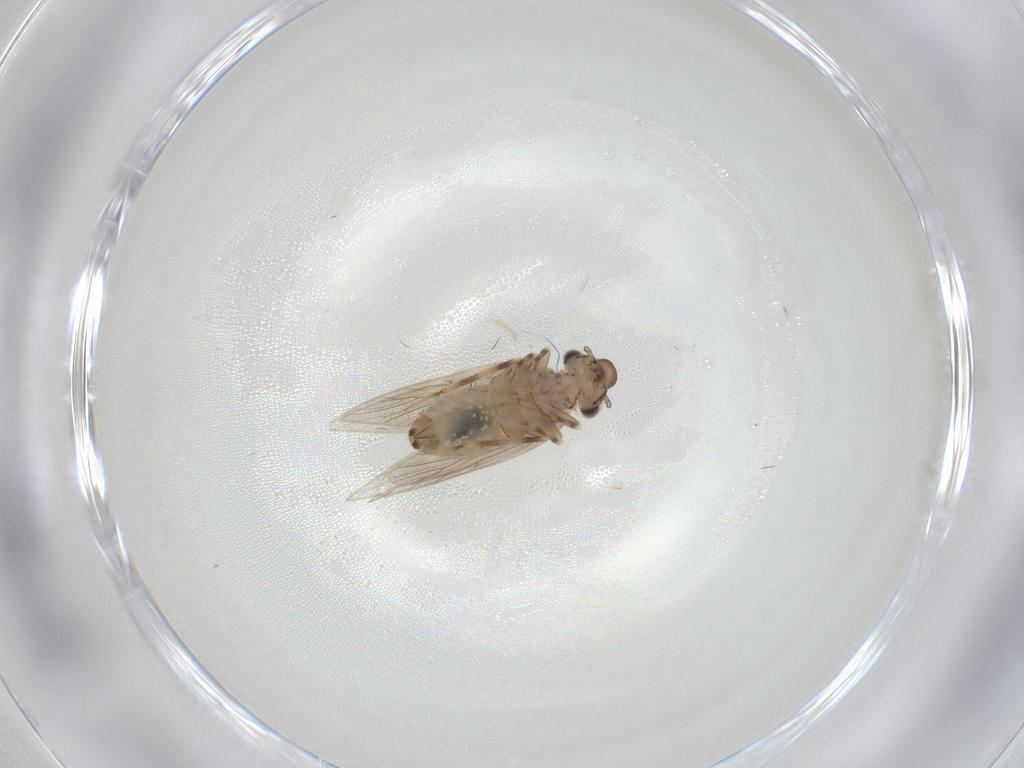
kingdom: Animalia
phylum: Arthropoda
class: Insecta
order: Psocodea
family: Lepidopsocidae
